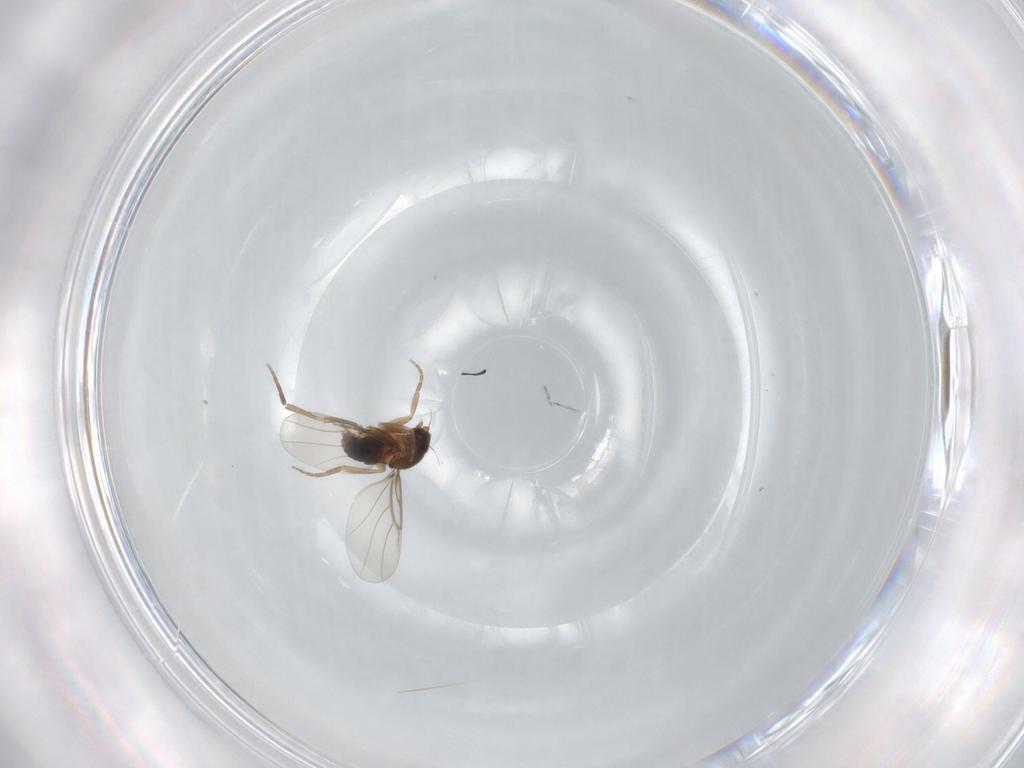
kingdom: Animalia
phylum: Arthropoda
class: Insecta
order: Diptera
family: Phoridae
